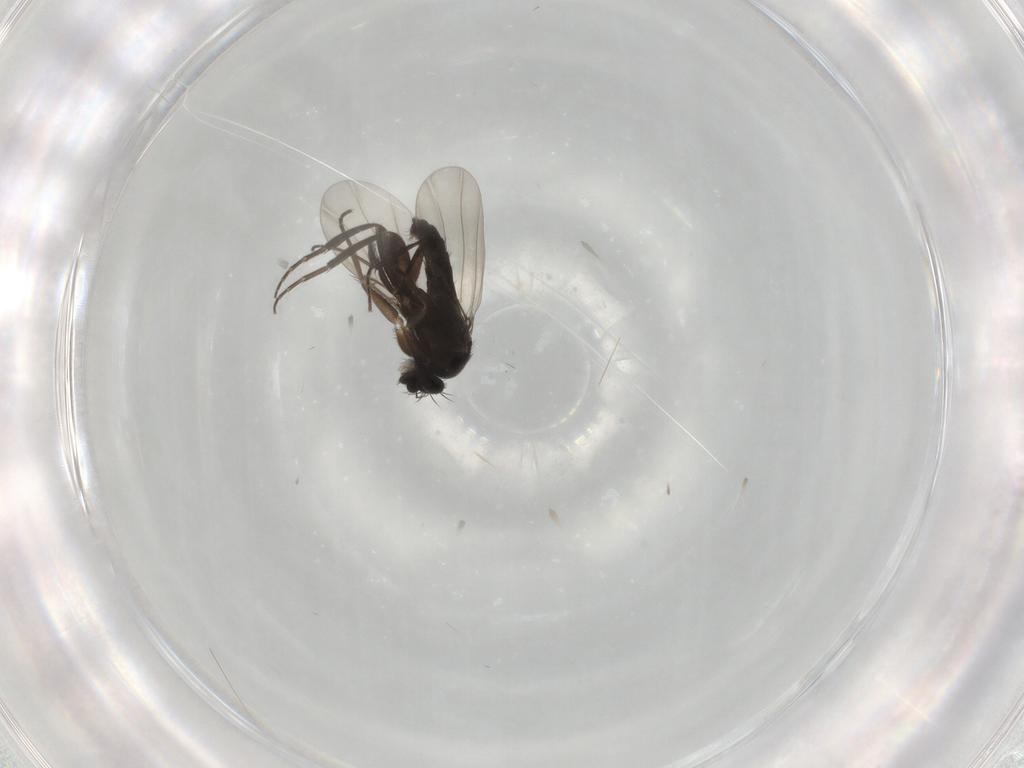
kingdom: Animalia
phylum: Arthropoda
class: Insecta
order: Diptera
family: Phoridae
